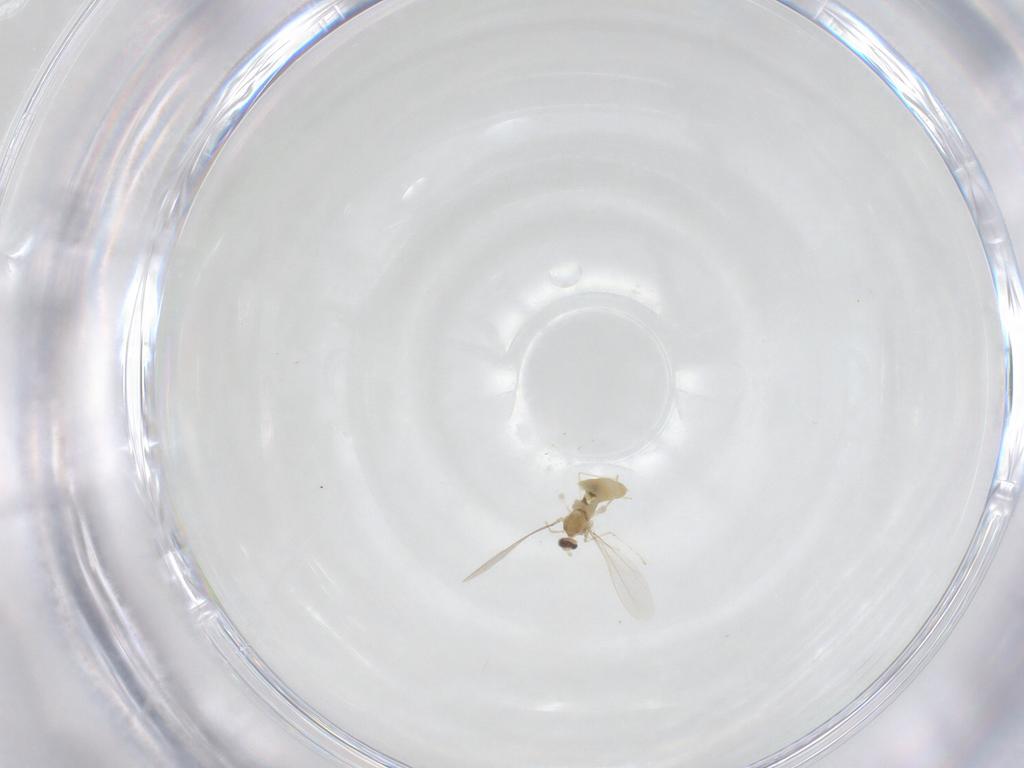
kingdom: Animalia
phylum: Arthropoda
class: Insecta
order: Diptera
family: Cecidomyiidae
